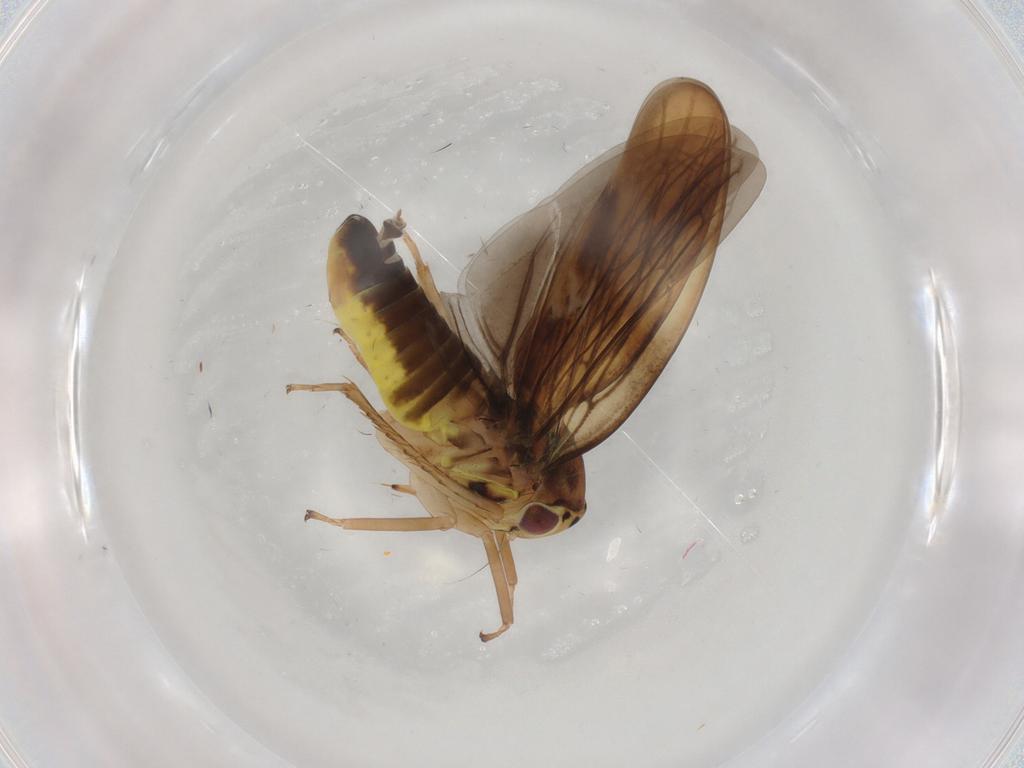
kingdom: Animalia
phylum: Arthropoda
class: Insecta
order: Hemiptera
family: Cicadellidae
